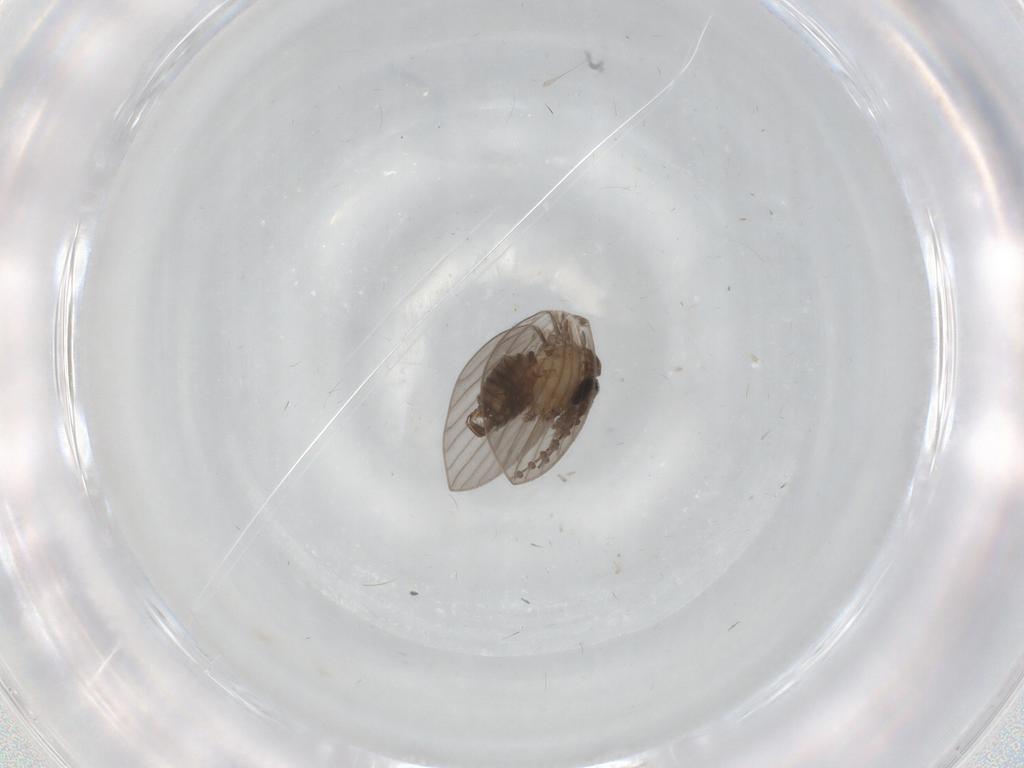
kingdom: Animalia
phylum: Arthropoda
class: Insecta
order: Diptera
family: Psychodidae
